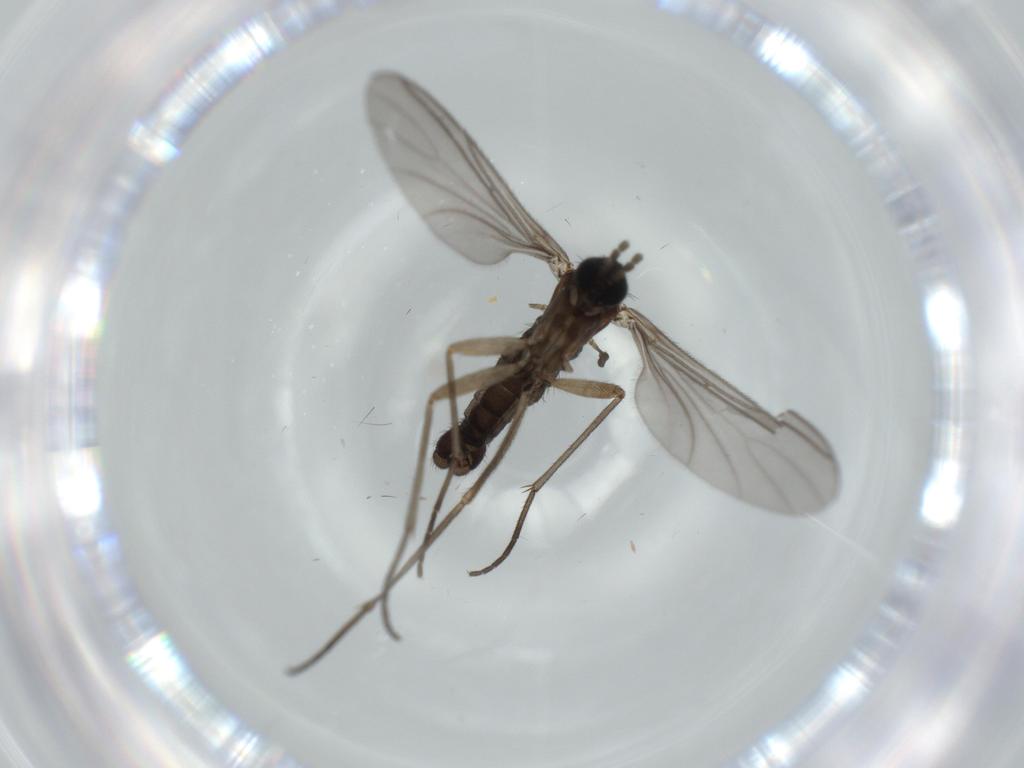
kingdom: Animalia
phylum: Arthropoda
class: Insecta
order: Diptera
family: Sciaridae
